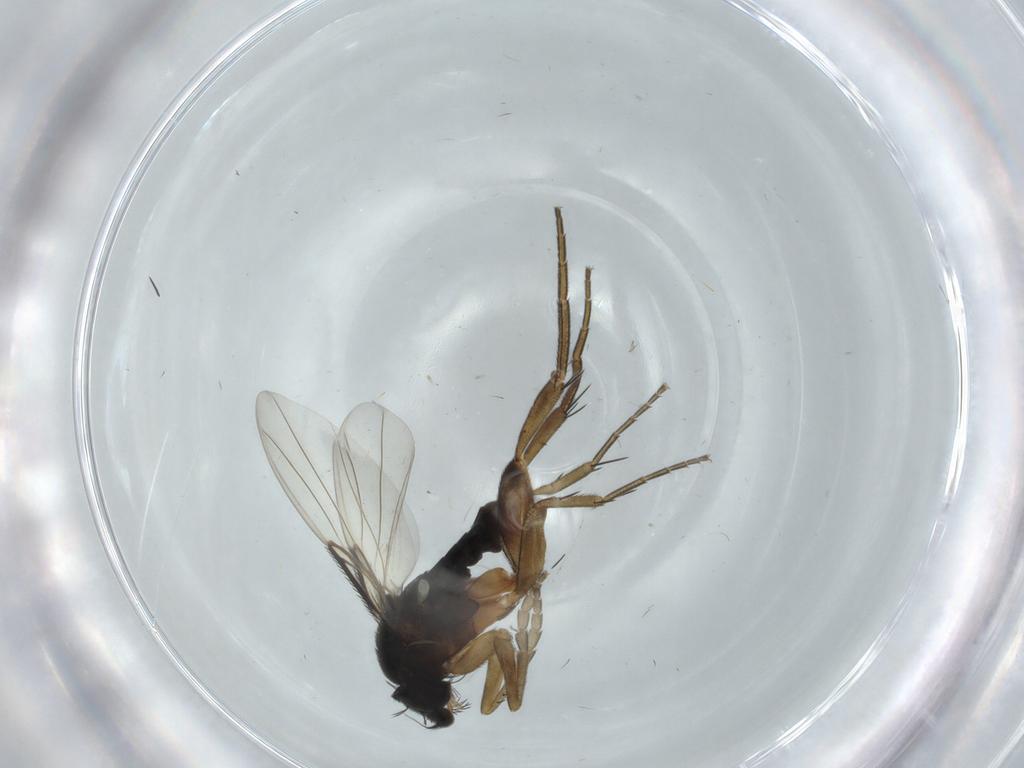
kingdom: Animalia
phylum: Arthropoda
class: Insecta
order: Diptera
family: Phoridae
